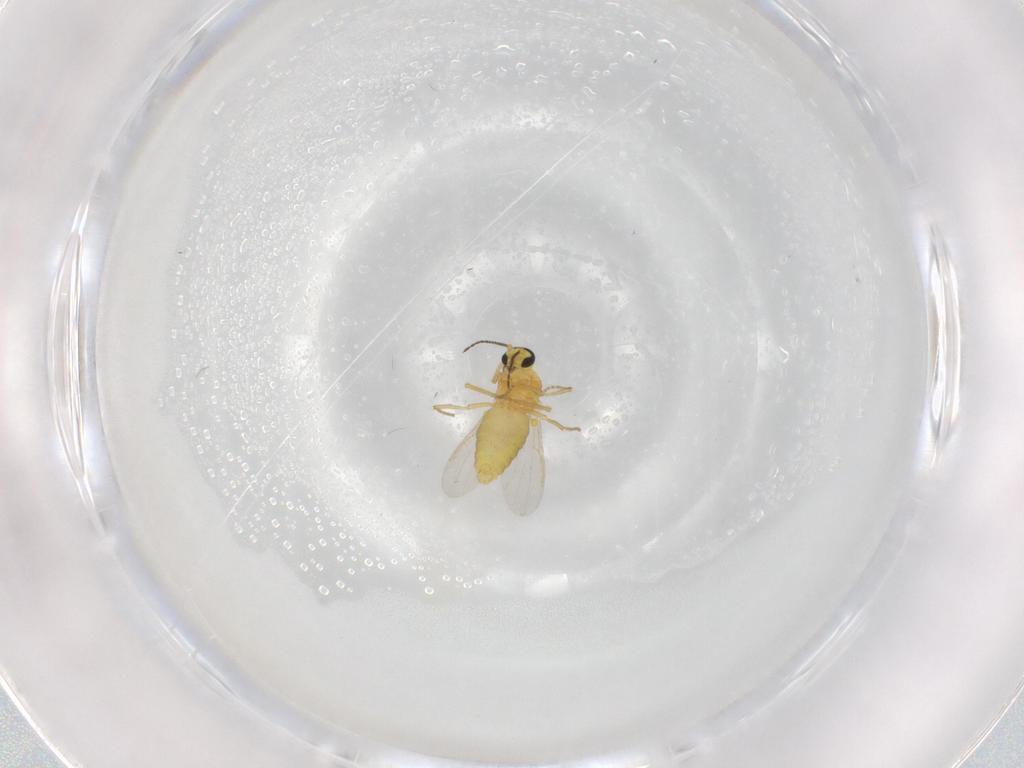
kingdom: Animalia
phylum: Arthropoda
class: Insecta
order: Diptera
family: Ceratopogonidae
